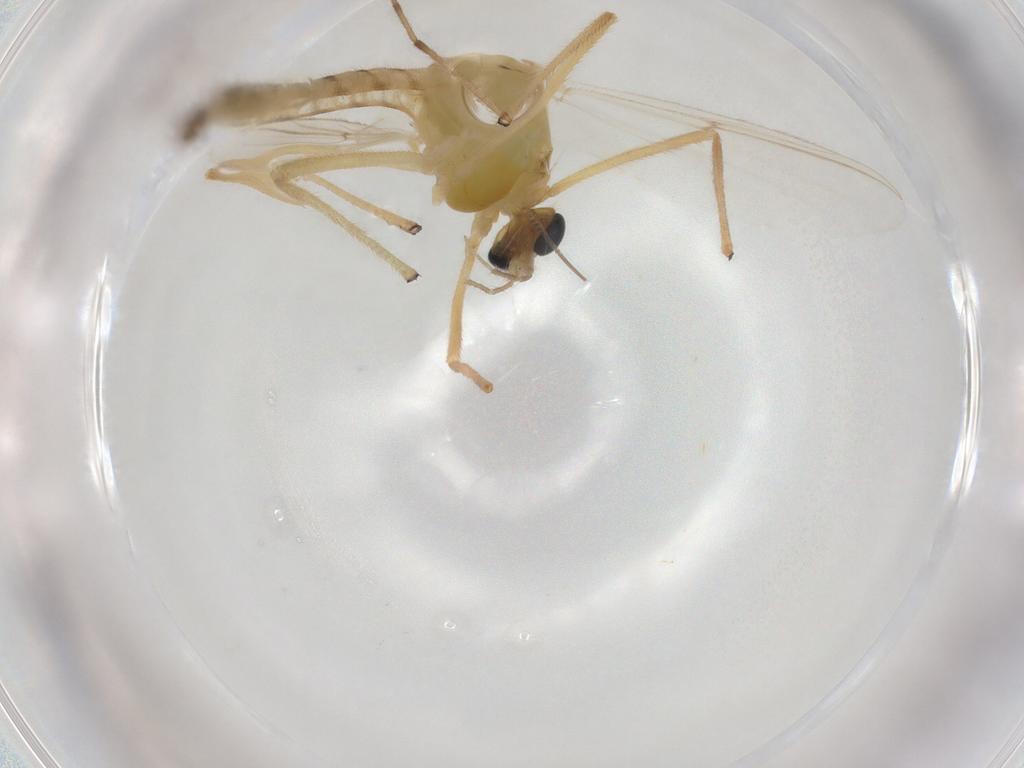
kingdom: Animalia
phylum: Arthropoda
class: Insecta
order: Diptera
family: Chironomidae
